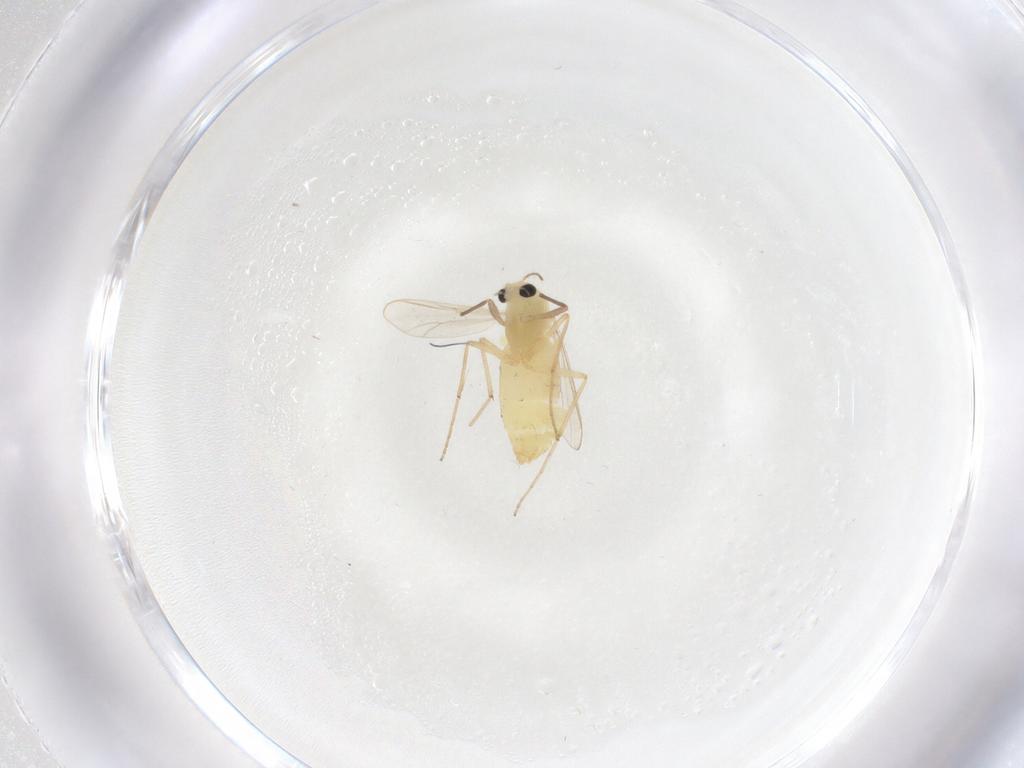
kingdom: Animalia
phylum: Arthropoda
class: Insecta
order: Diptera
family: Chironomidae
